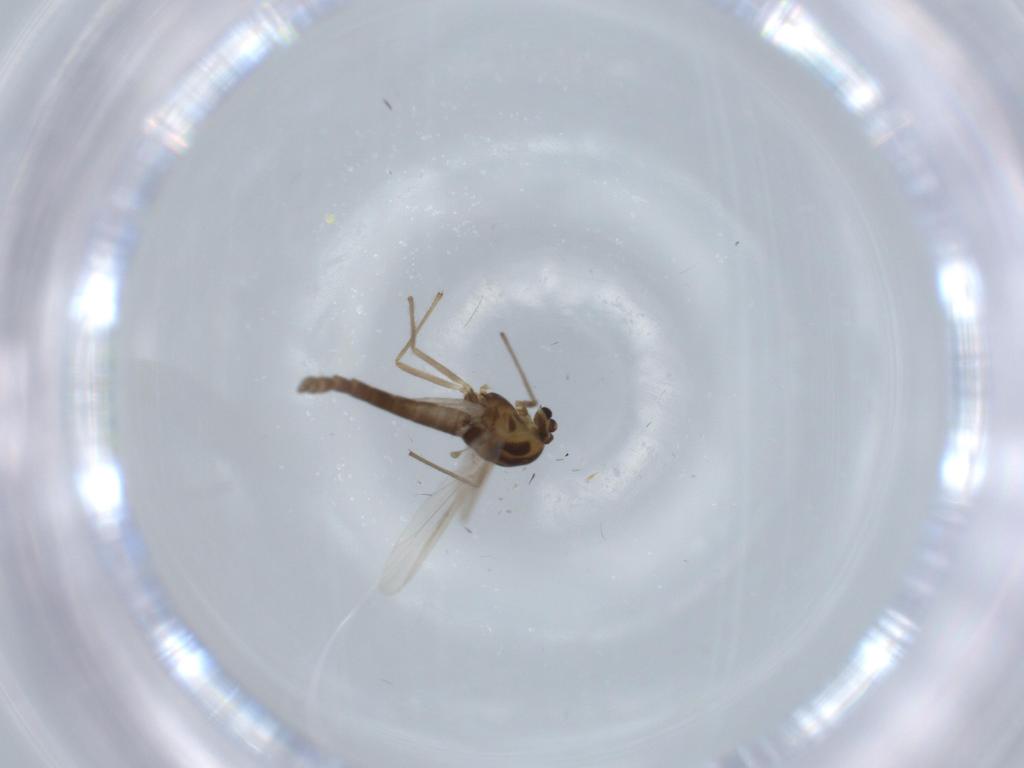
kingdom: Animalia
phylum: Arthropoda
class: Insecta
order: Diptera
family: Chironomidae
